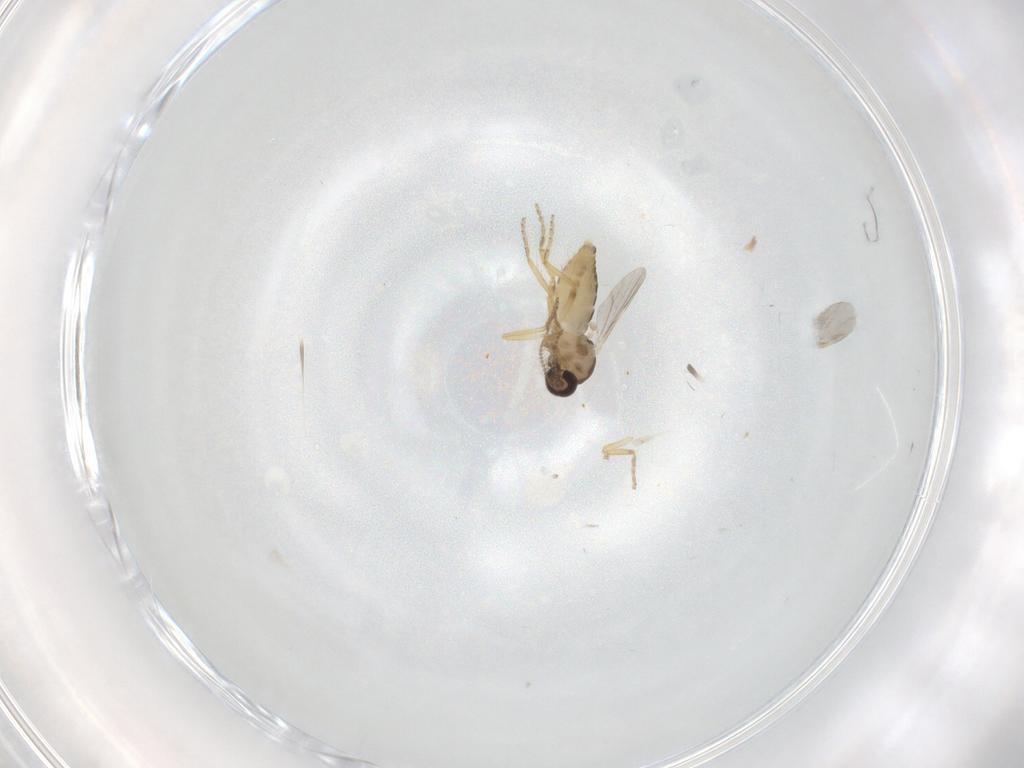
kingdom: Animalia
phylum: Arthropoda
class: Insecta
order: Diptera
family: Ceratopogonidae
